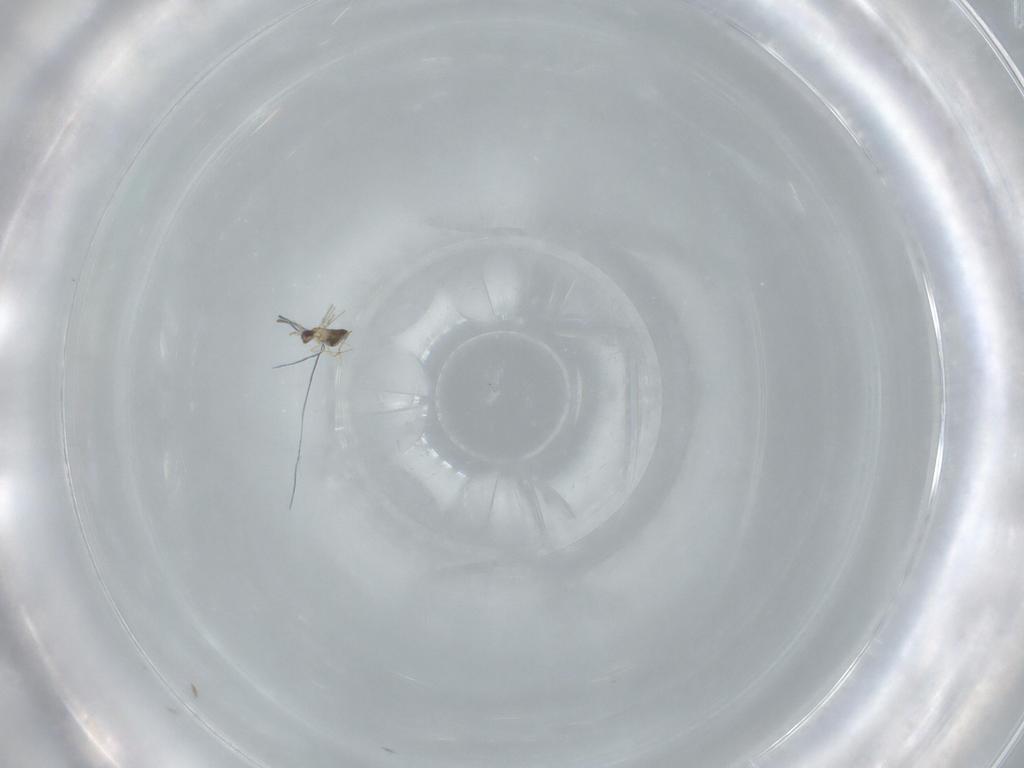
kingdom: Animalia
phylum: Arthropoda
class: Insecta
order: Hymenoptera
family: Mymaridae
